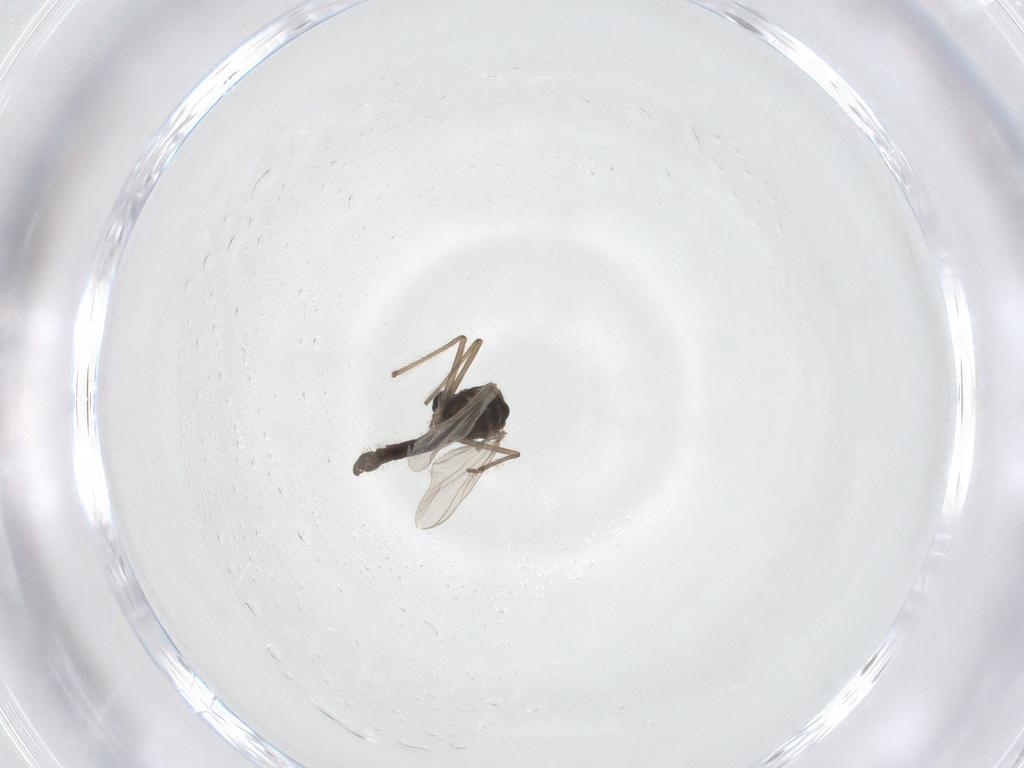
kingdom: Animalia
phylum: Arthropoda
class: Insecta
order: Diptera
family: Chironomidae
